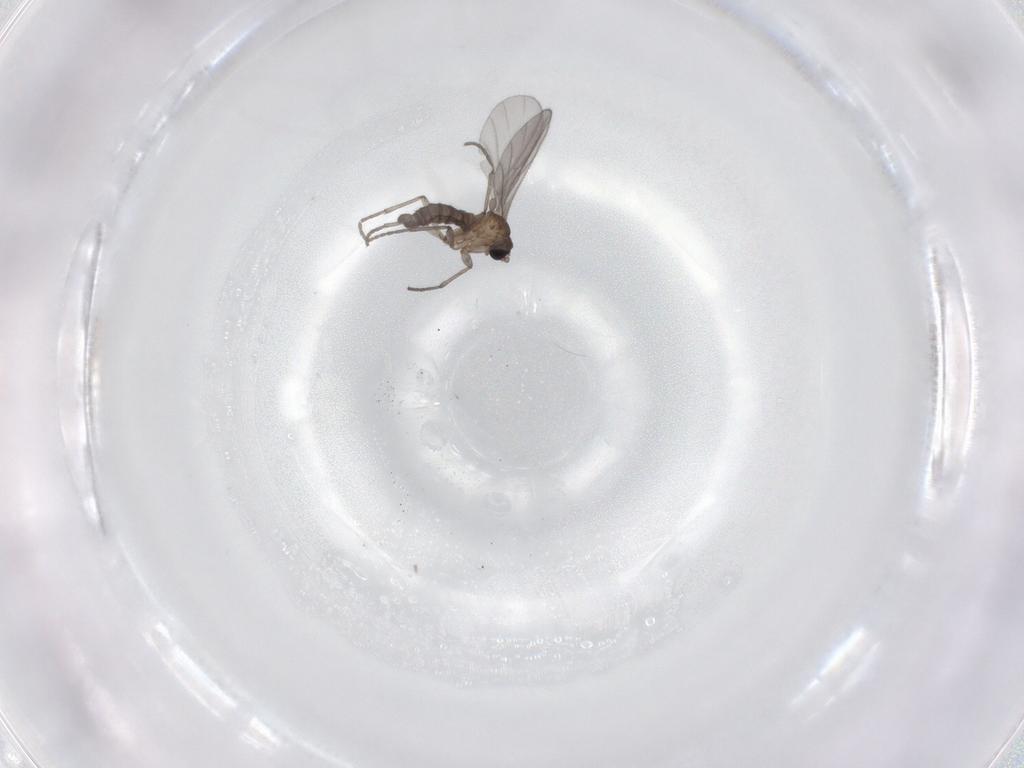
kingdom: Animalia
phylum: Arthropoda
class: Insecta
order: Diptera
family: Sciaridae
